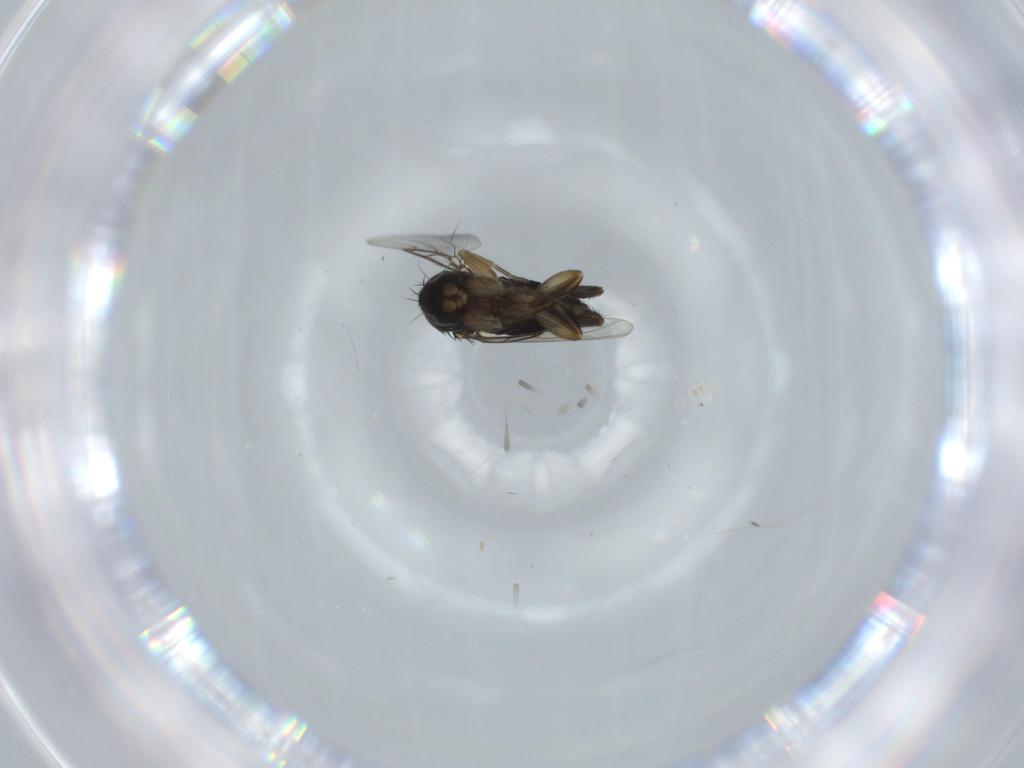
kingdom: Animalia
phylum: Arthropoda
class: Insecta
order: Diptera
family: Phoridae
